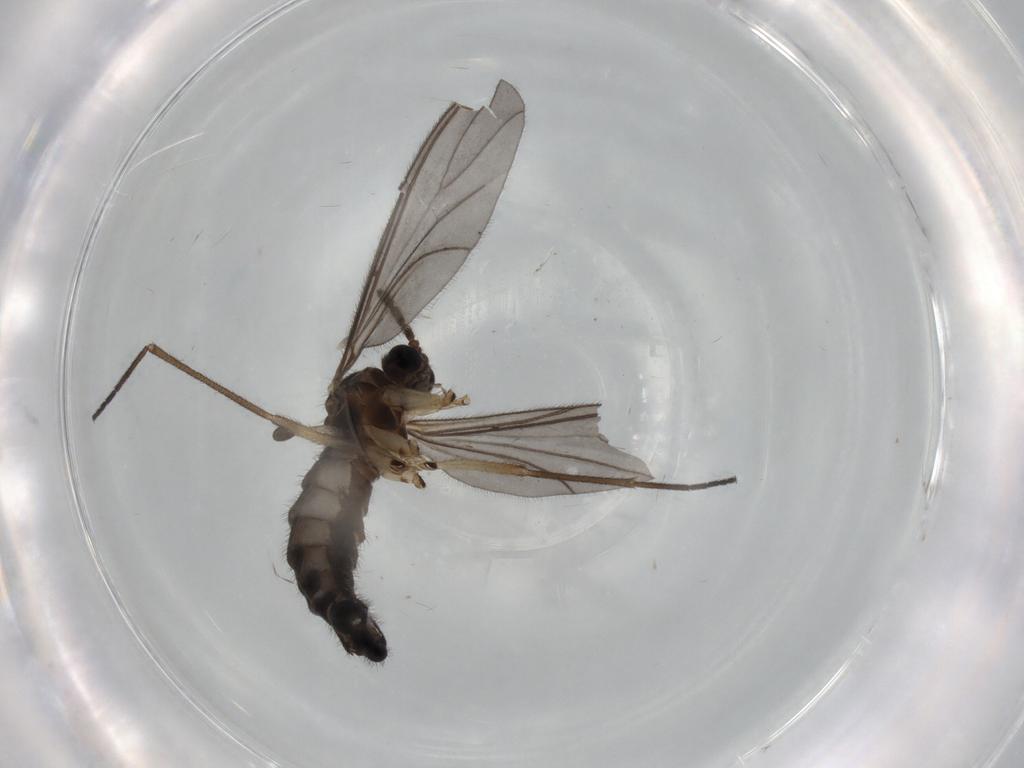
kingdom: Animalia
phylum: Arthropoda
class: Insecta
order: Diptera
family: Sciaridae
